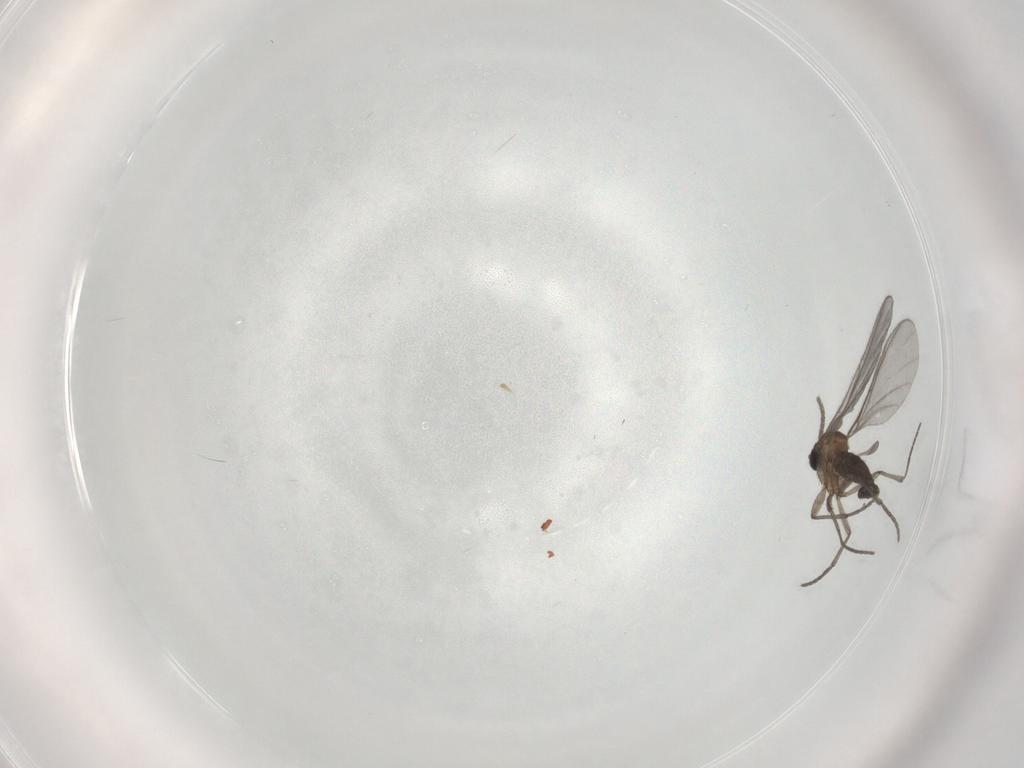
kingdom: Animalia
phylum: Arthropoda
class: Insecta
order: Diptera
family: Sciaridae
